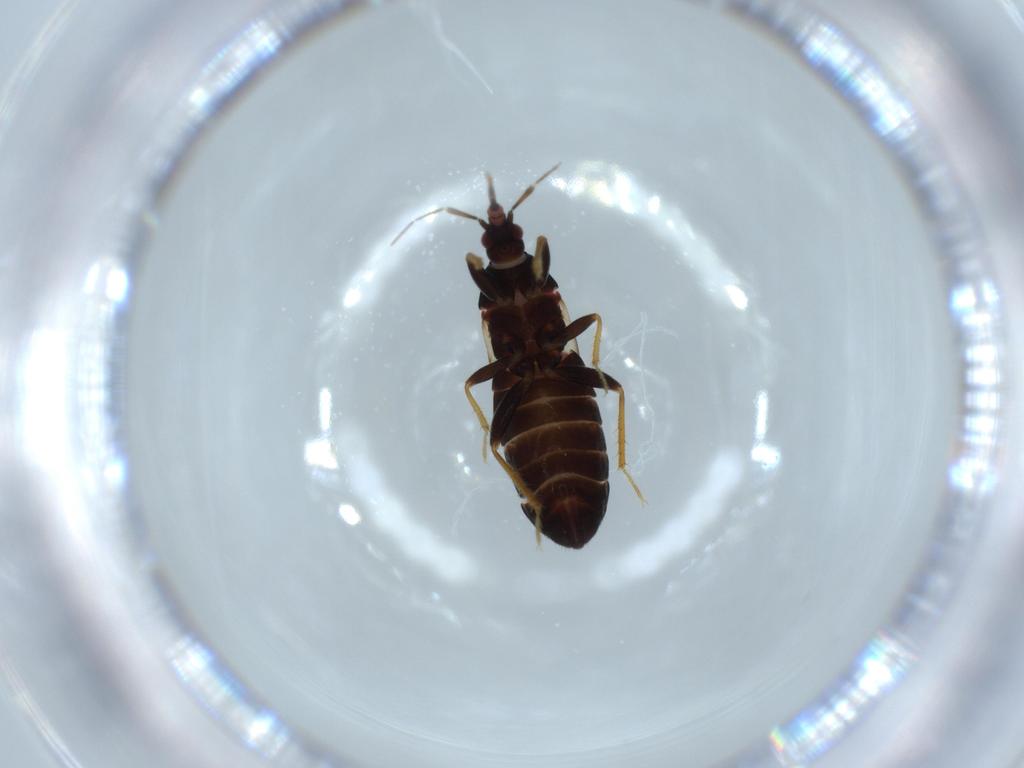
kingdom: Animalia
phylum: Arthropoda
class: Insecta
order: Hemiptera
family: Anthocoridae
